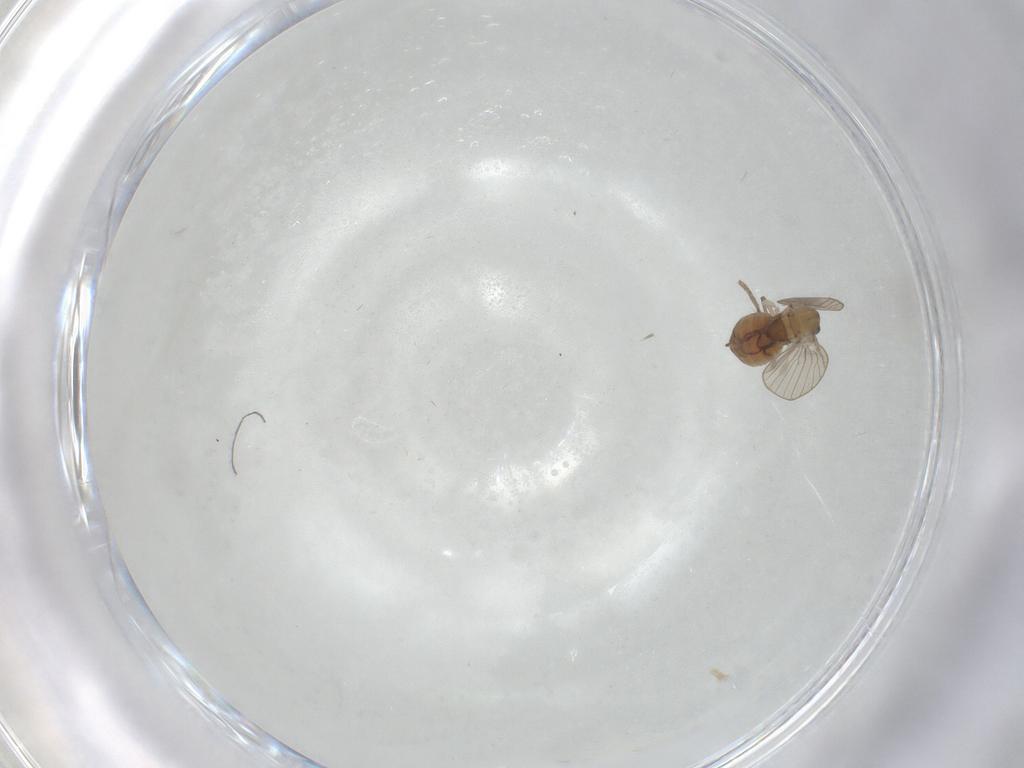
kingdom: Animalia
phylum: Arthropoda
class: Insecta
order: Diptera
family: Psychodidae
